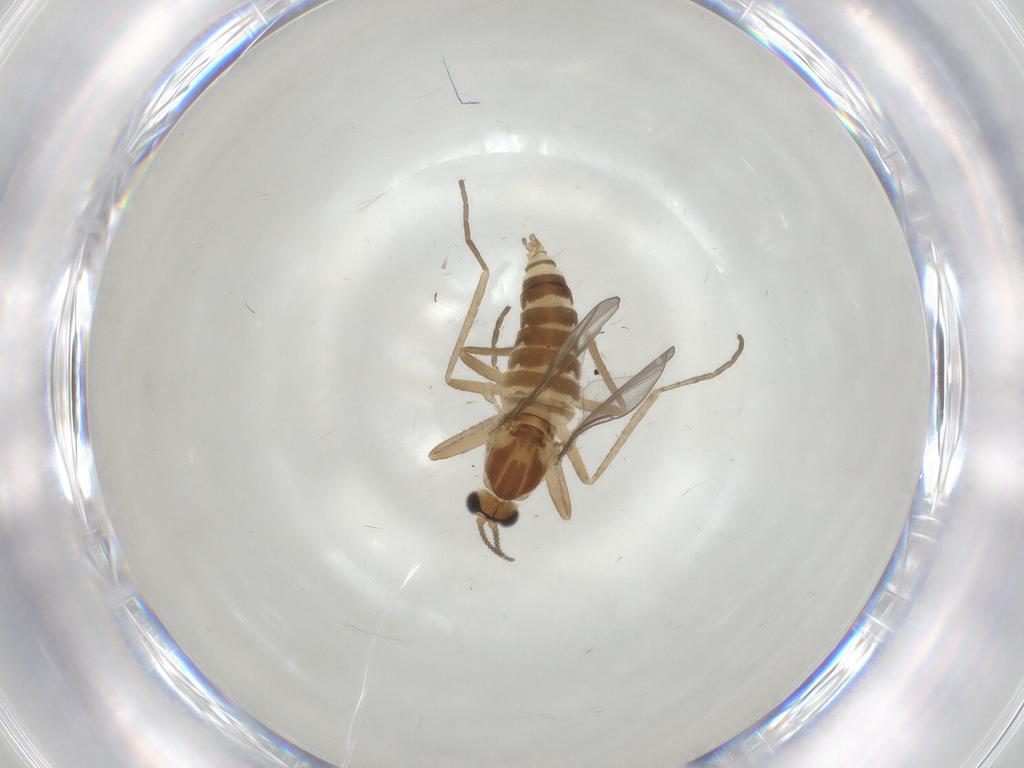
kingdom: Animalia
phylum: Arthropoda
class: Insecta
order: Diptera
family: Cecidomyiidae
